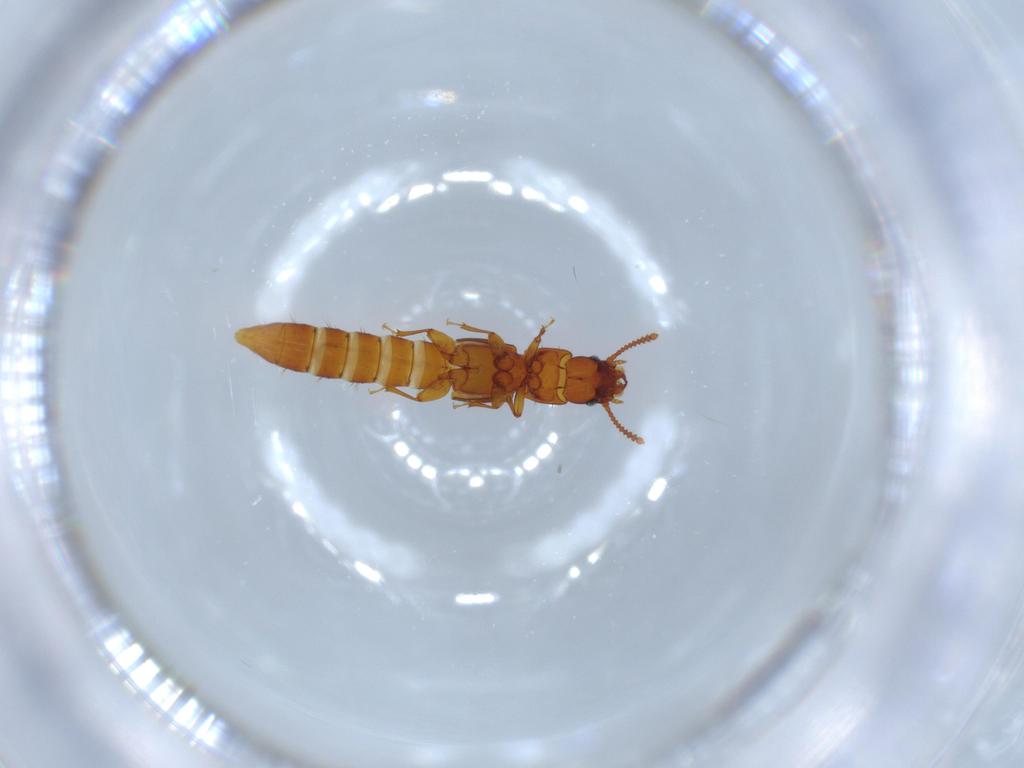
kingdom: Animalia
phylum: Arthropoda
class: Insecta
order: Coleoptera
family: Staphylinidae
